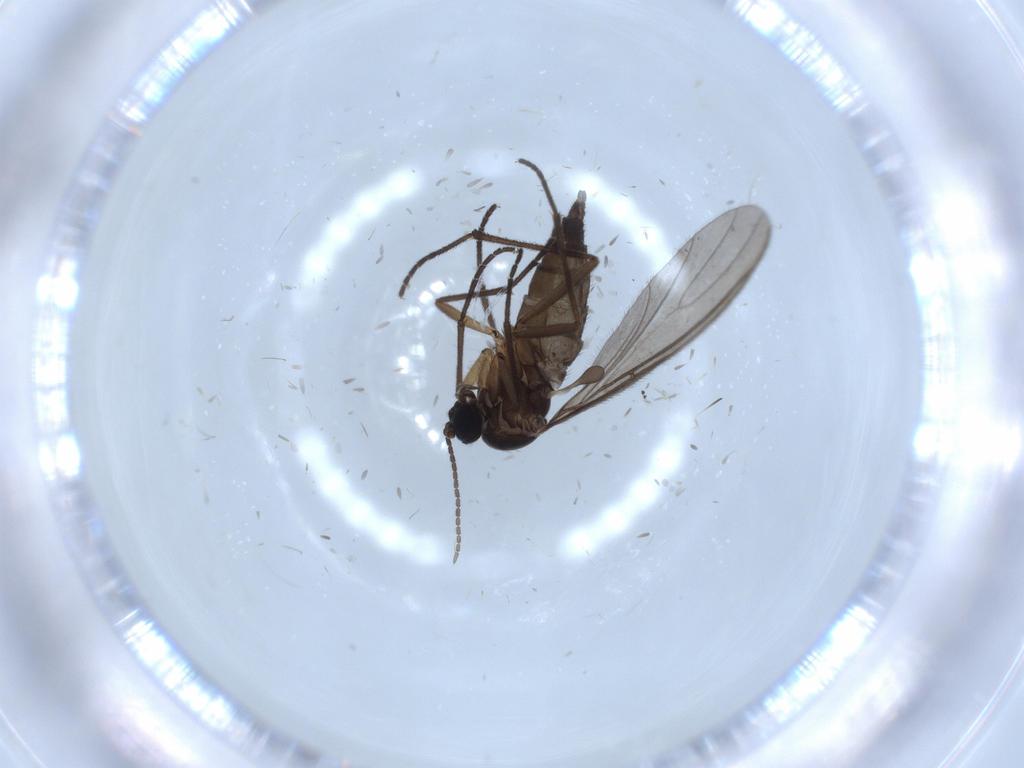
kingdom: Animalia
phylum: Arthropoda
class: Insecta
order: Diptera
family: Sciaridae
